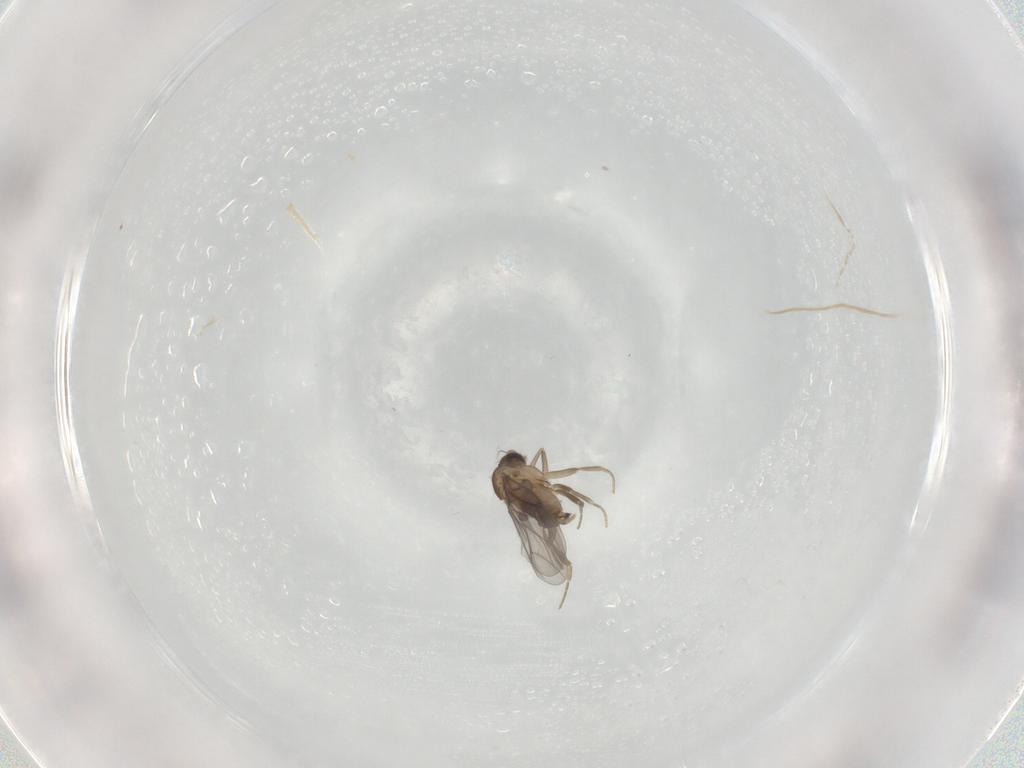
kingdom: Animalia
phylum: Arthropoda
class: Insecta
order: Diptera
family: Cecidomyiidae
